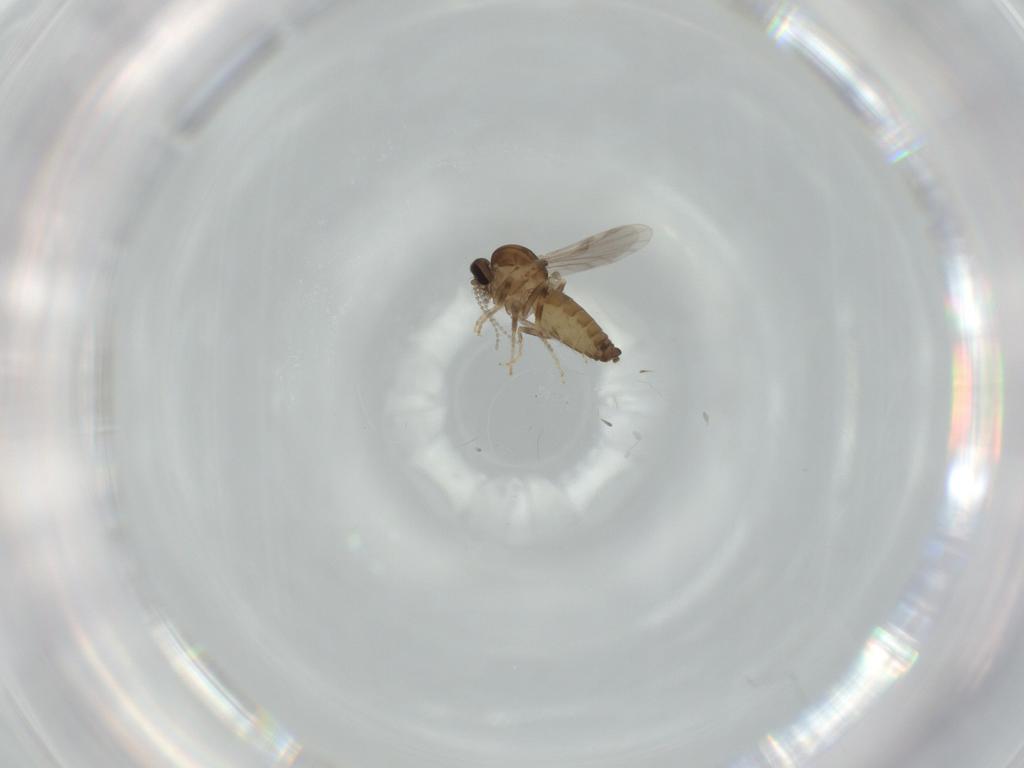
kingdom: Animalia
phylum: Arthropoda
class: Insecta
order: Diptera
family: Ceratopogonidae
